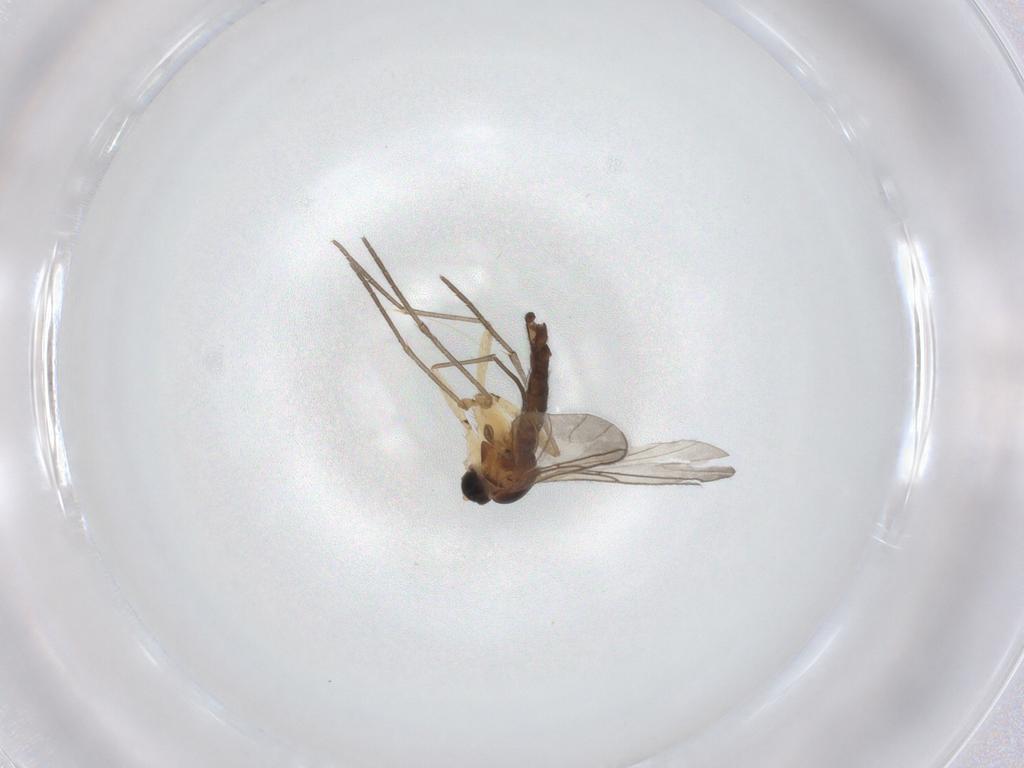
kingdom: Animalia
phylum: Arthropoda
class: Insecta
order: Diptera
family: Sciaridae
